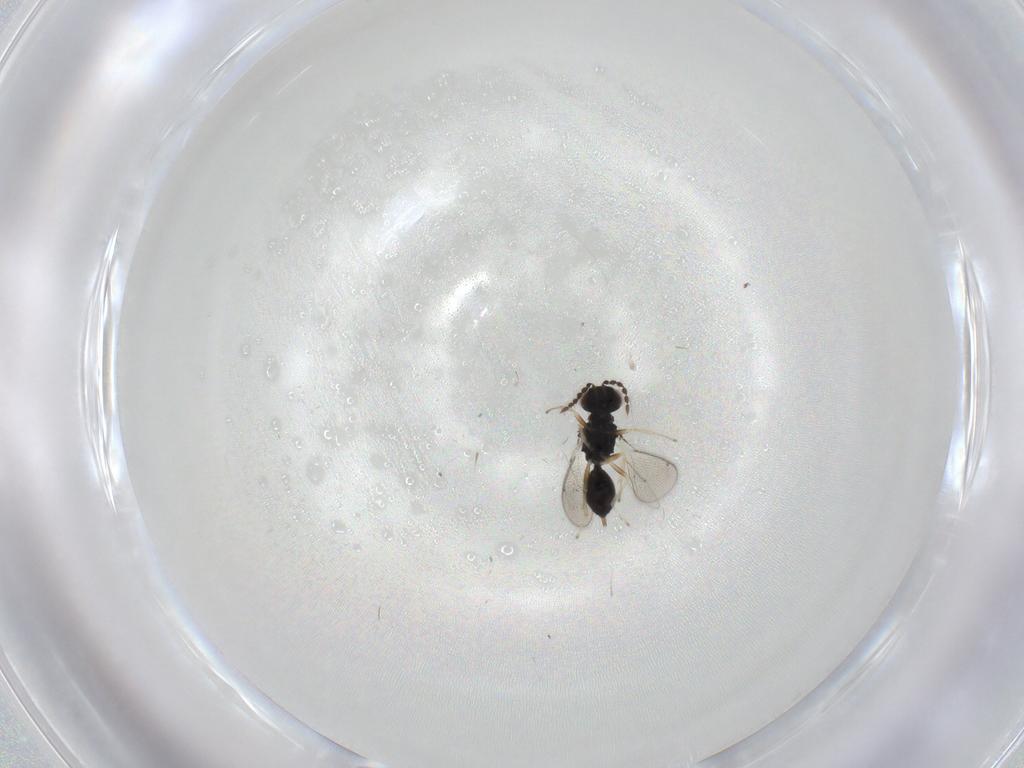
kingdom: Animalia
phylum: Arthropoda
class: Insecta
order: Hymenoptera
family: Eulophidae
